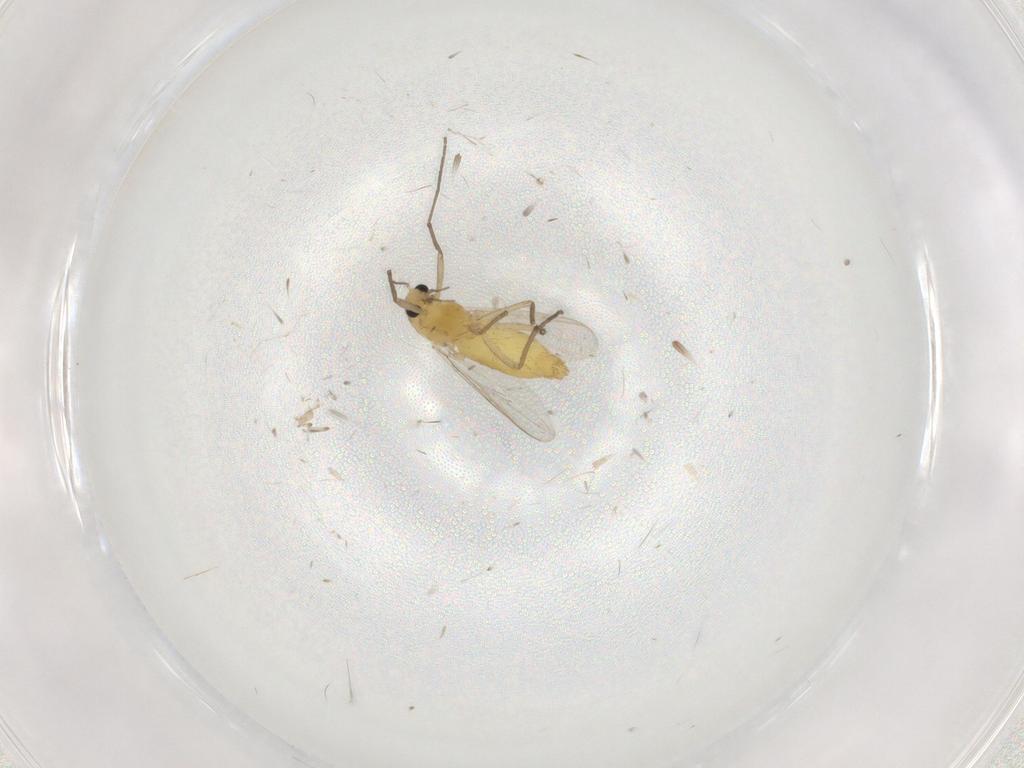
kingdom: Animalia
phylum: Arthropoda
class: Insecta
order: Diptera
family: Chironomidae
